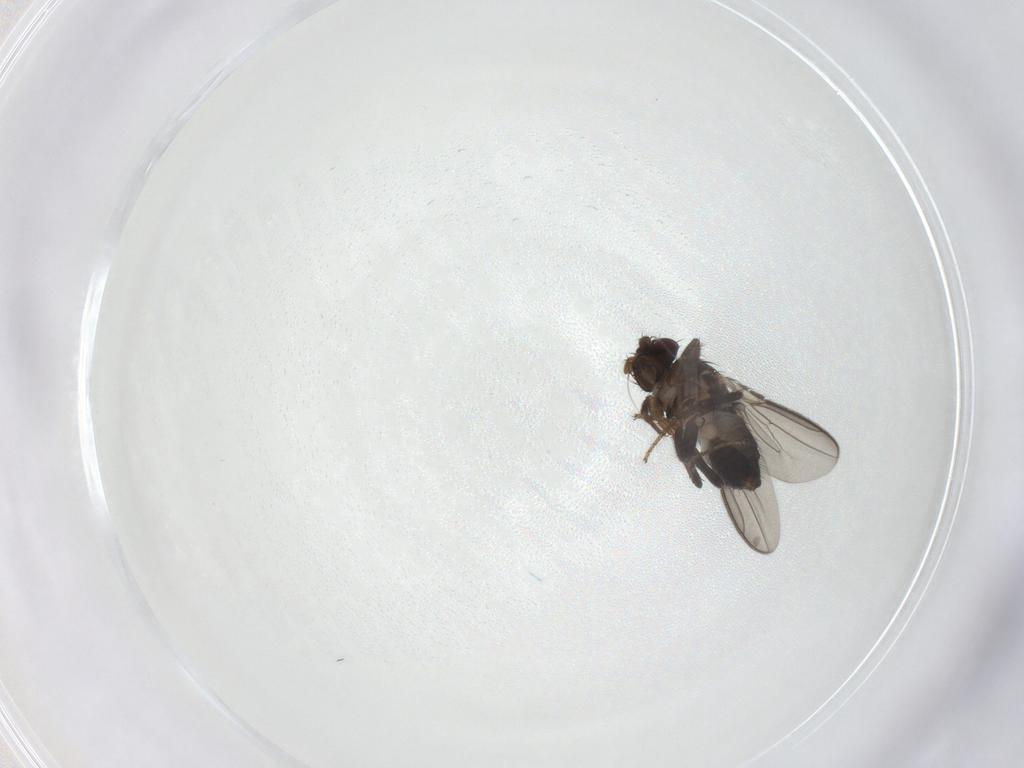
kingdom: Animalia
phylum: Arthropoda
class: Insecta
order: Diptera
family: Sphaeroceridae
